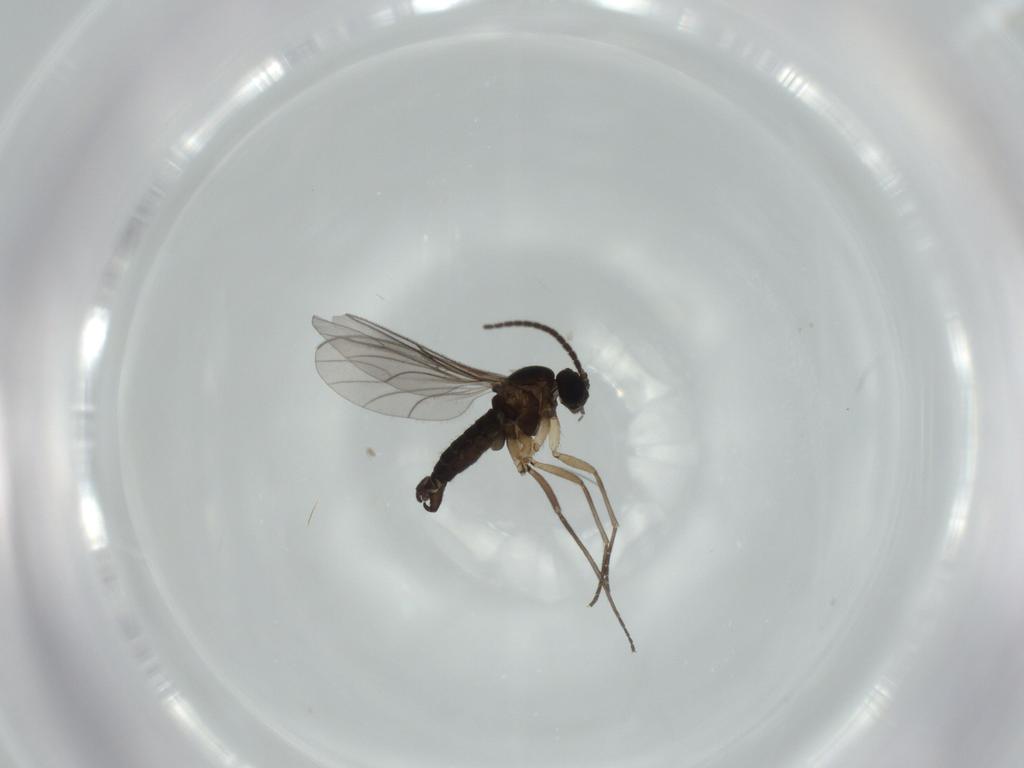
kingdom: Animalia
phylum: Arthropoda
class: Insecta
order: Diptera
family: Sciaridae
